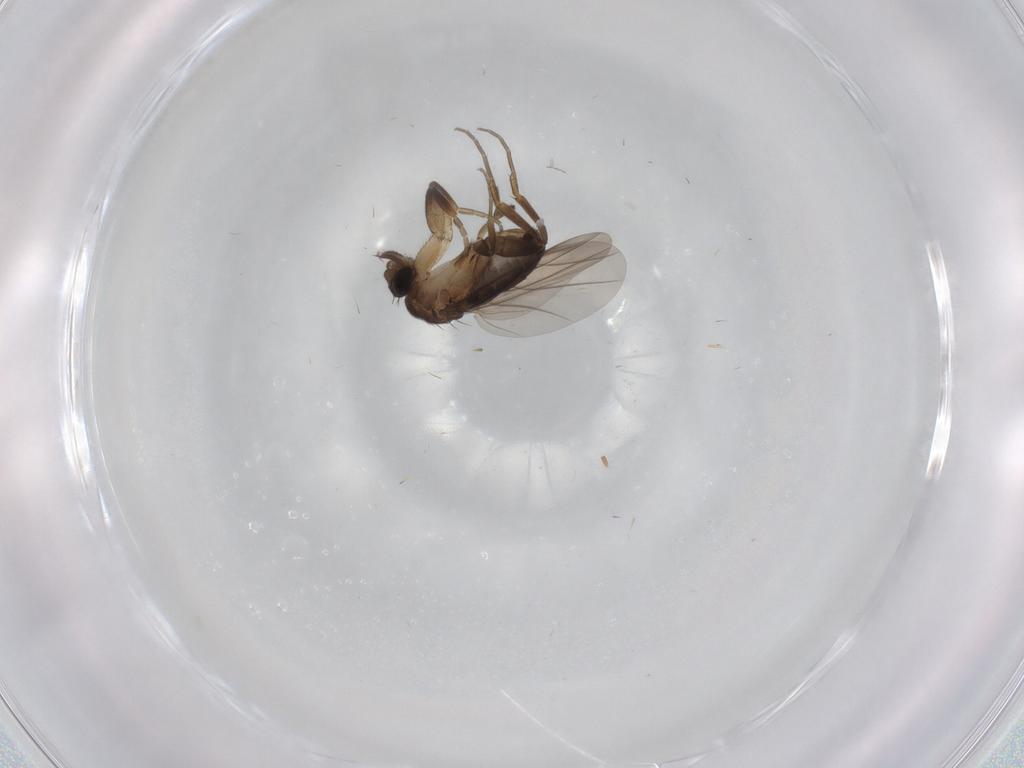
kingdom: Animalia
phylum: Arthropoda
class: Insecta
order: Diptera
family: Phoridae
